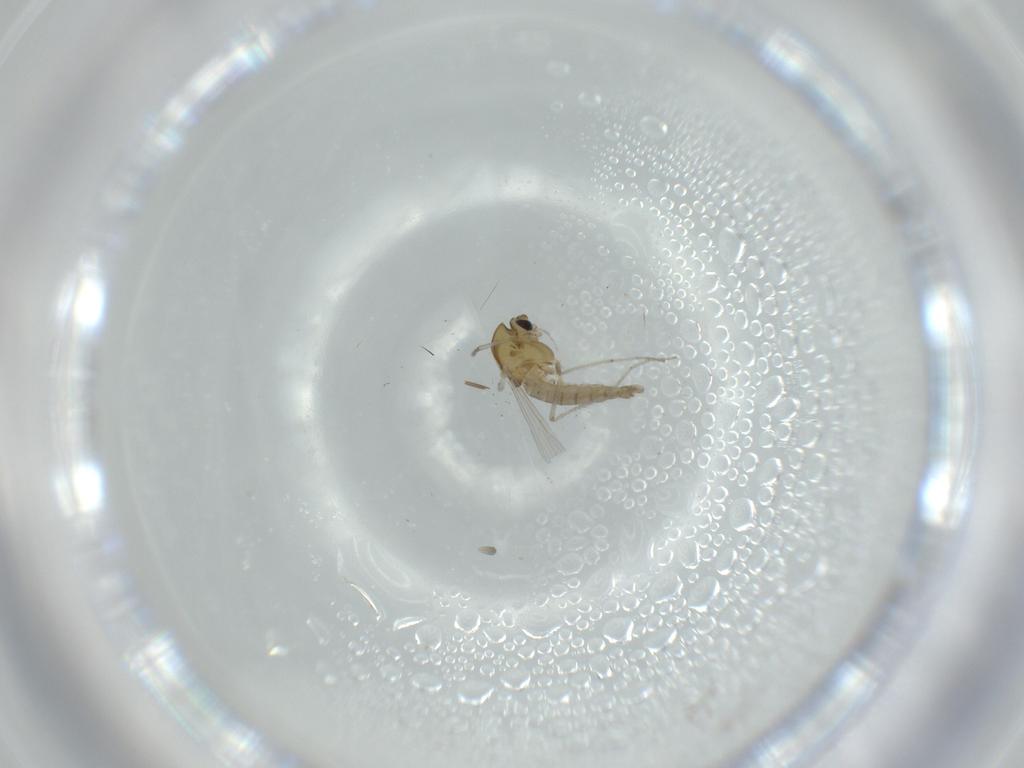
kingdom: Animalia
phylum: Arthropoda
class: Insecta
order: Diptera
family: Chironomidae
